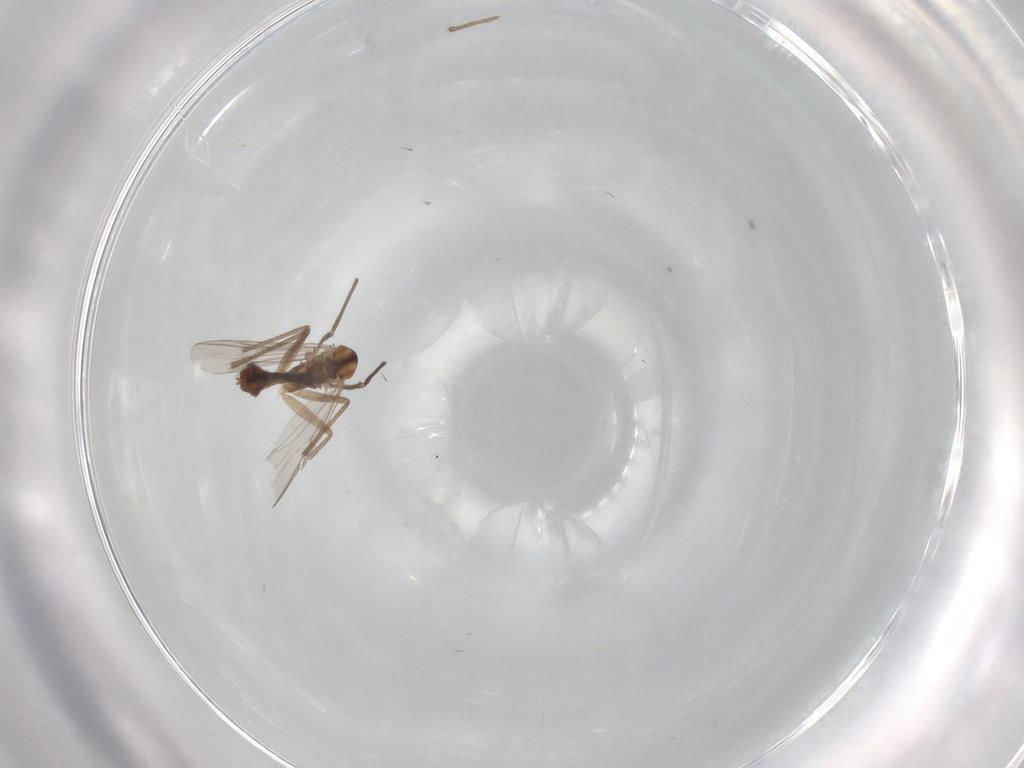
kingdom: Animalia
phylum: Arthropoda
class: Insecta
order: Diptera
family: Chironomidae
